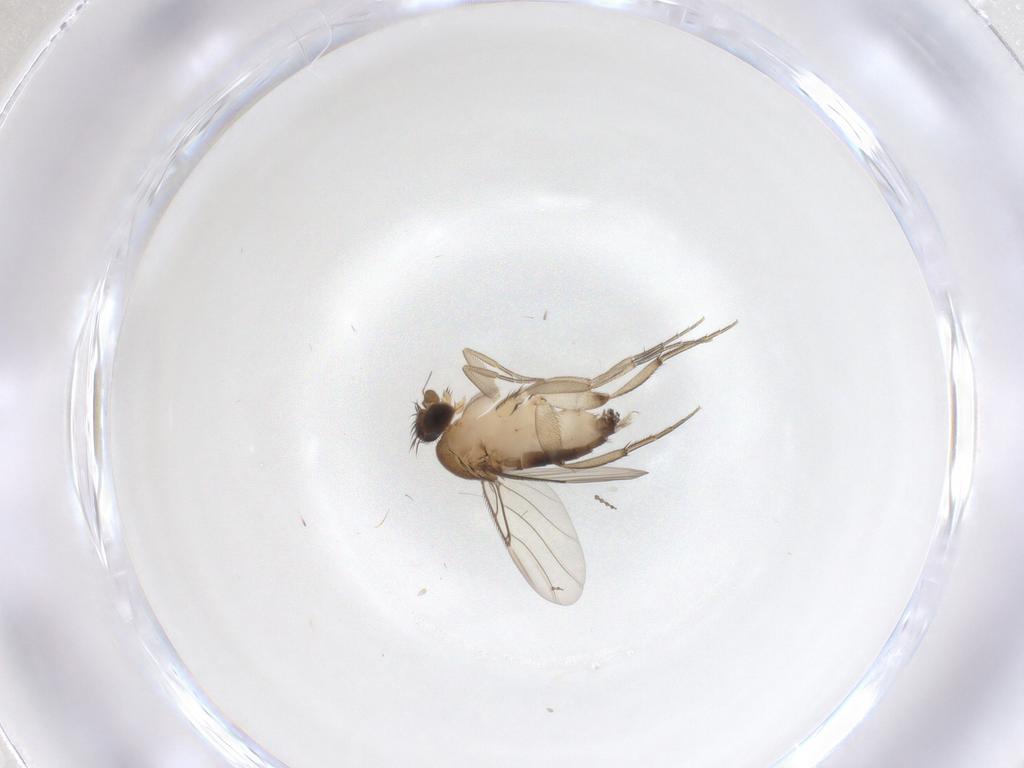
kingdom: Animalia
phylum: Arthropoda
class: Insecta
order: Diptera
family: Phoridae
